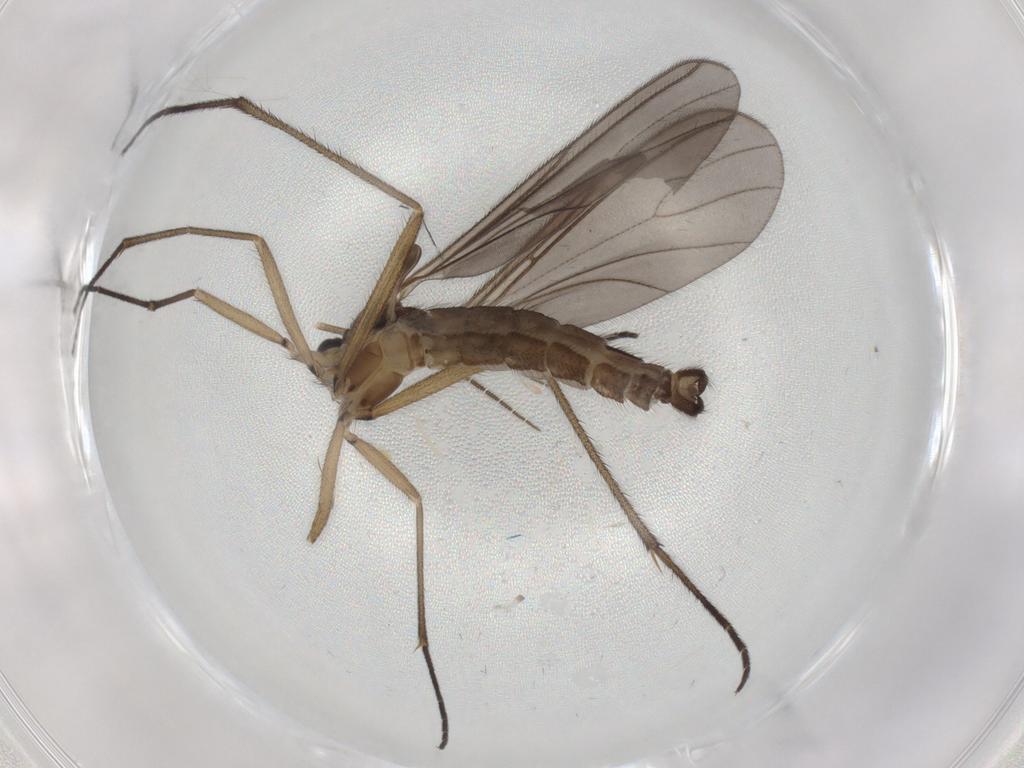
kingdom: Animalia
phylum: Arthropoda
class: Insecta
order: Diptera
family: Sciaridae
